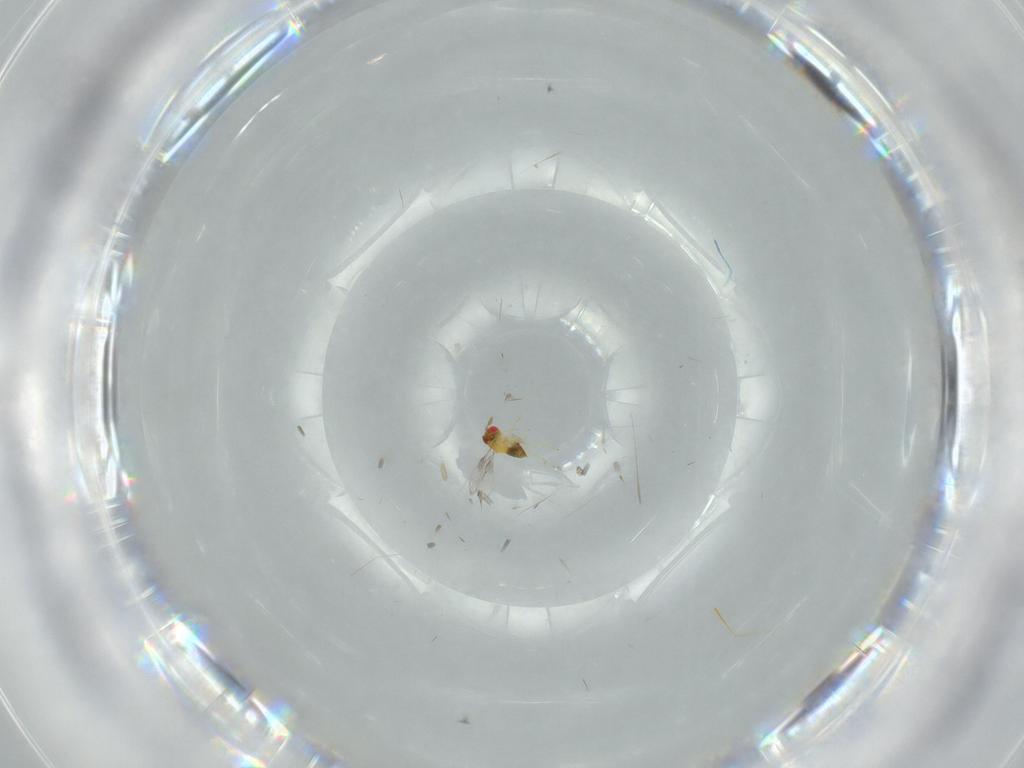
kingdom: Animalia
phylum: Arthropoda
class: Insecta
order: Hymenoptera
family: Trichogrammatidae
